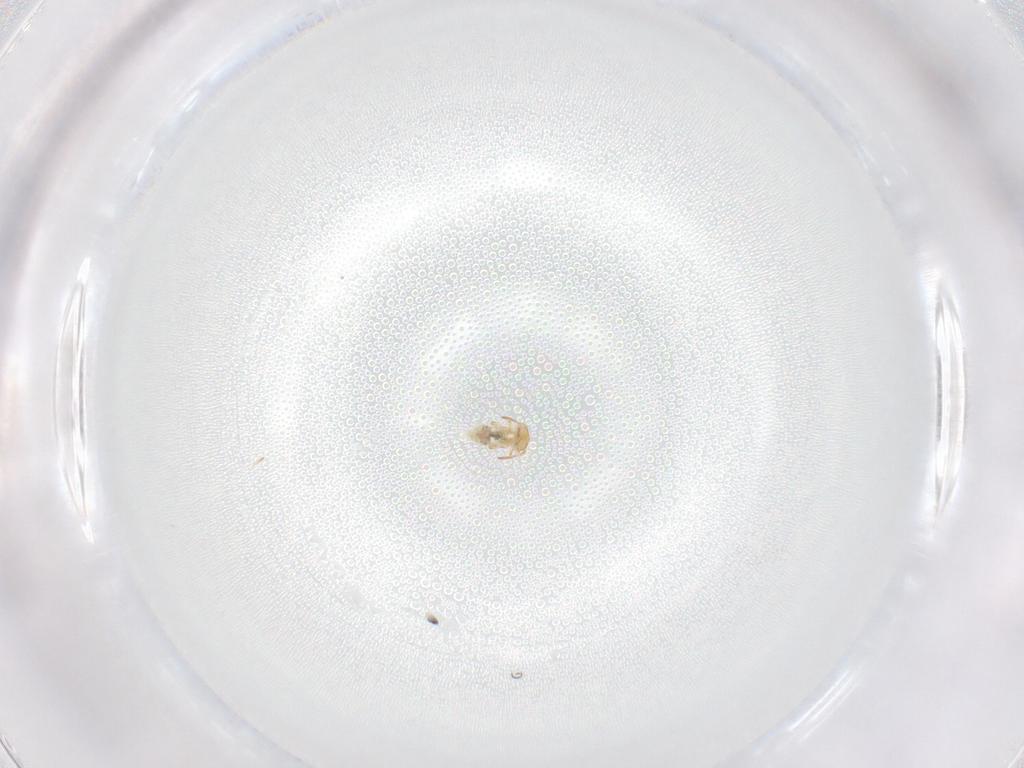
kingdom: Animalia
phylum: Arthropoda
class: Collembola
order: Symphypleona
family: Bourletiellidae
